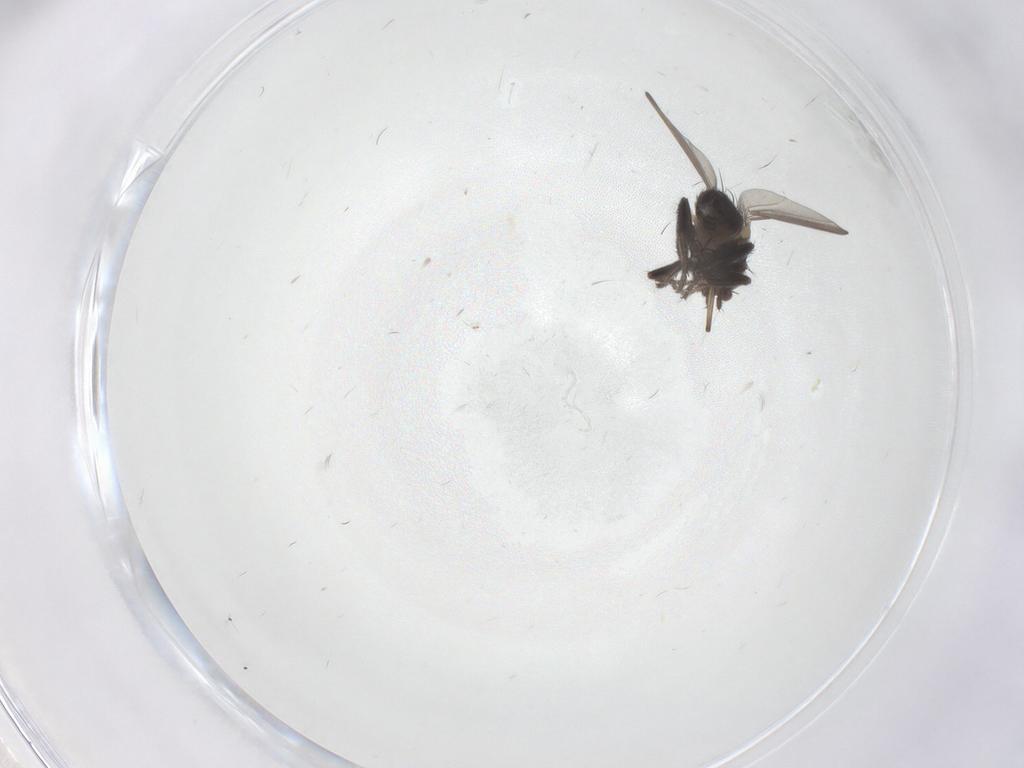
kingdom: Animalia
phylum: Arthropoda
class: Insecta
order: Diptera
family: Milichiidae
